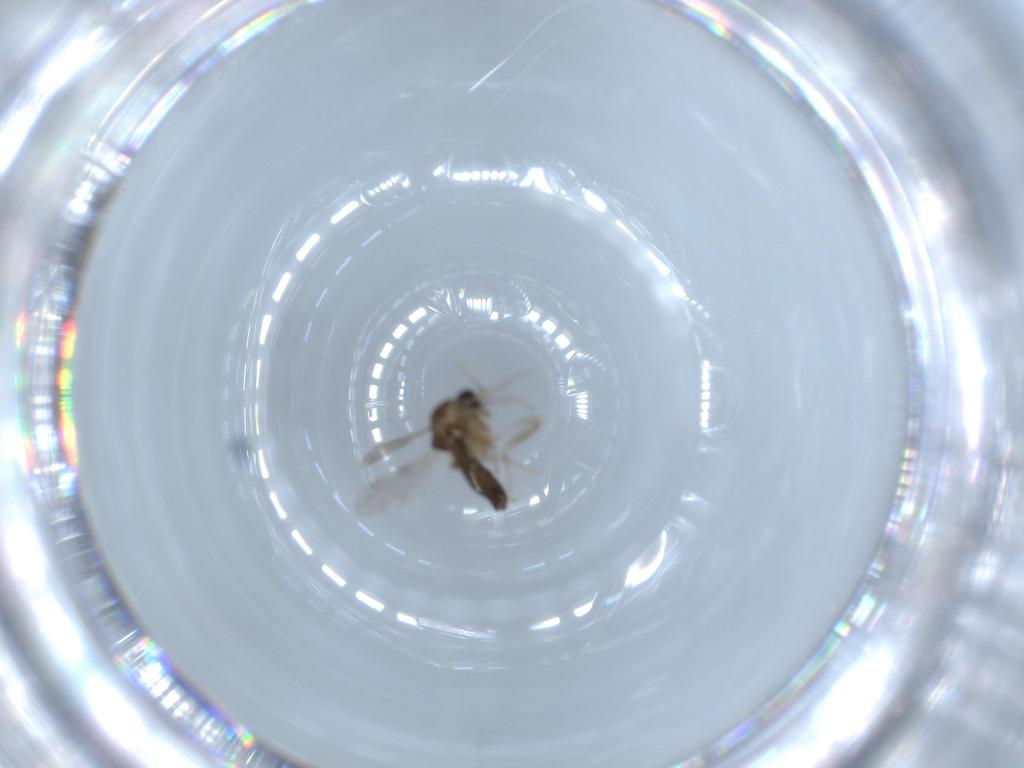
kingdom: Animalia
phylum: Arthropoda
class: Insecta
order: Diptera
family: Ceratopogonidae
